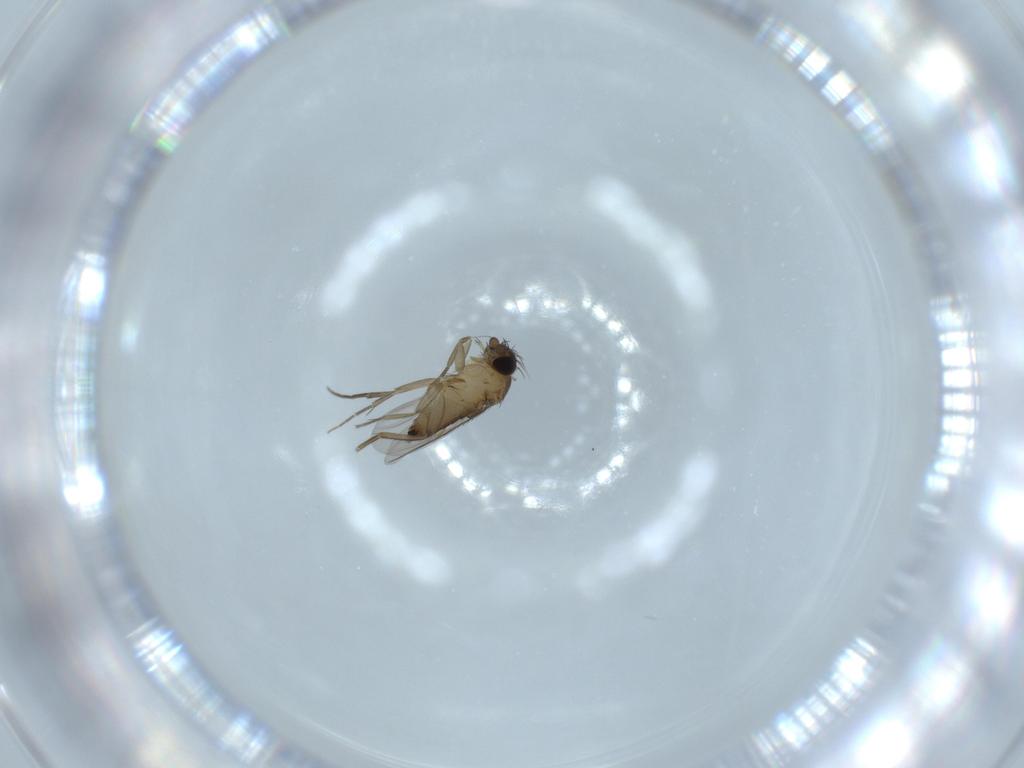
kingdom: Animalia
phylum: Arthropoda
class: Insecta
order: Diptera
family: Phoridae
